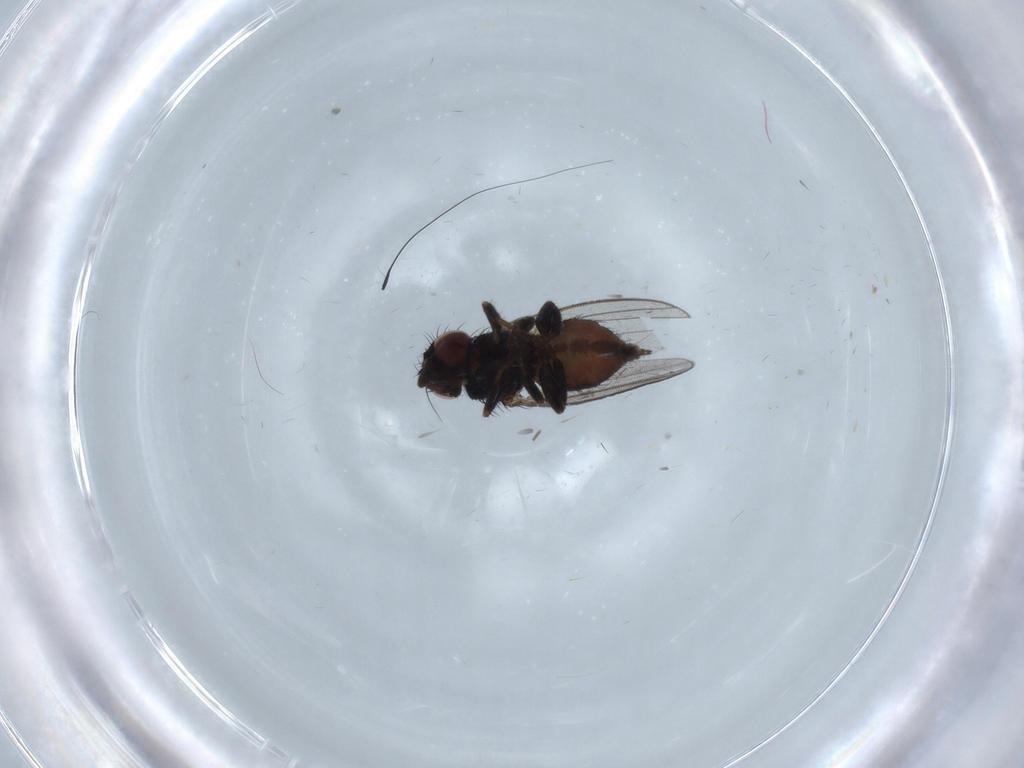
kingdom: Animalia
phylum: Arthropoda
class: Insecta
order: Diptera
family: Milichiidae
